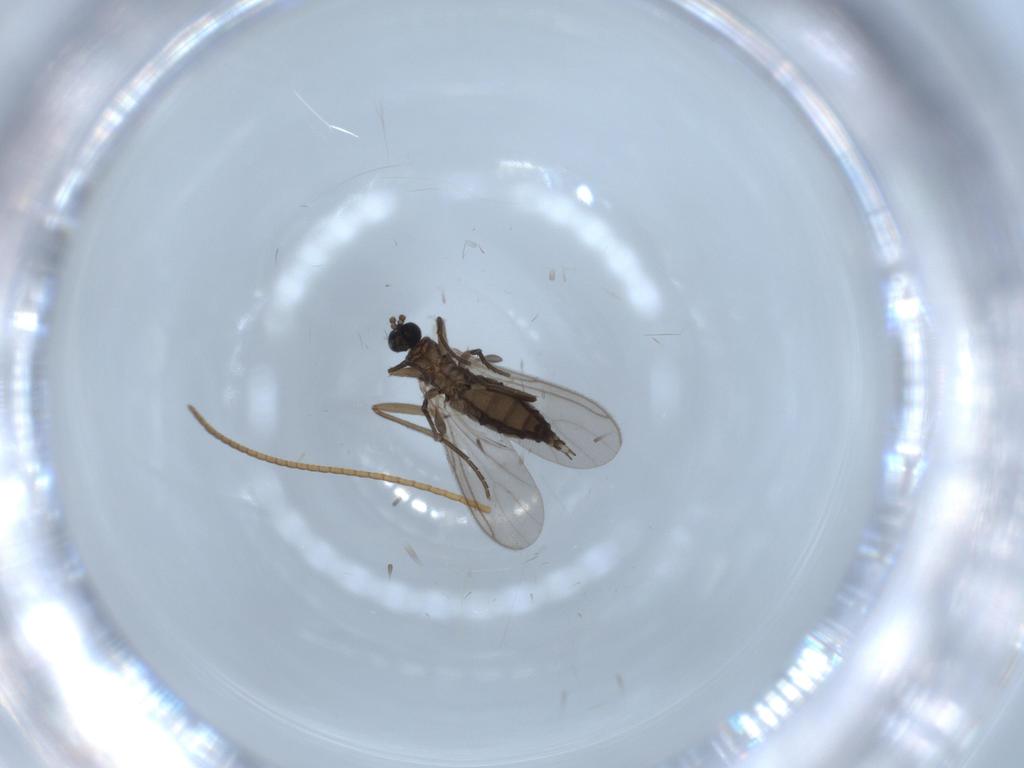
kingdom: Animalia
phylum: Arthropoda
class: Insecta
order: Diptera
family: Sciaridae
